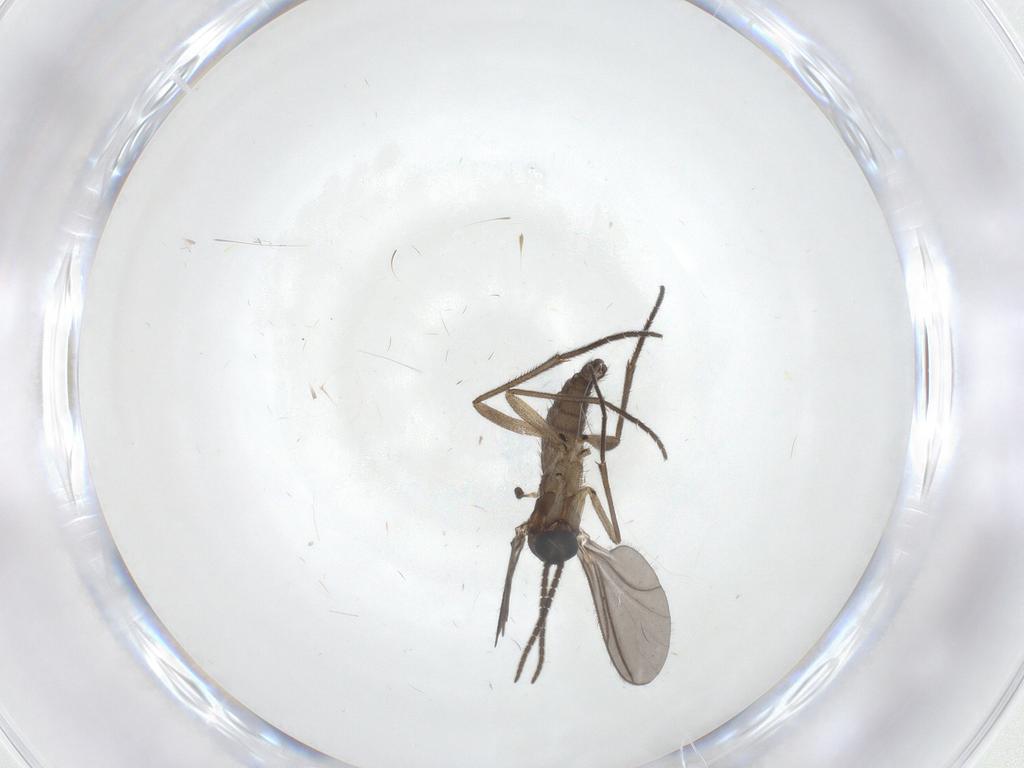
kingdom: Animalia
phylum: Arthropoda
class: Insecta
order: Diptera
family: Sciaridae
